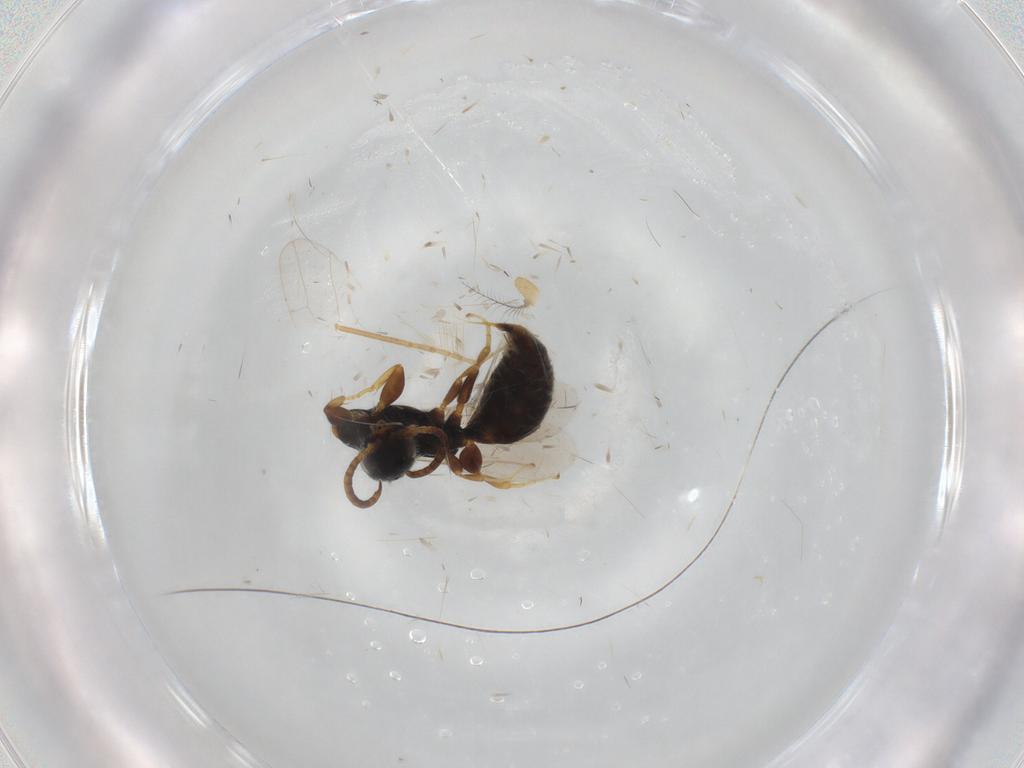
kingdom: Animalia
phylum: Arthropoda
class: Insecta
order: Hymenoptera
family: Bethylidae
